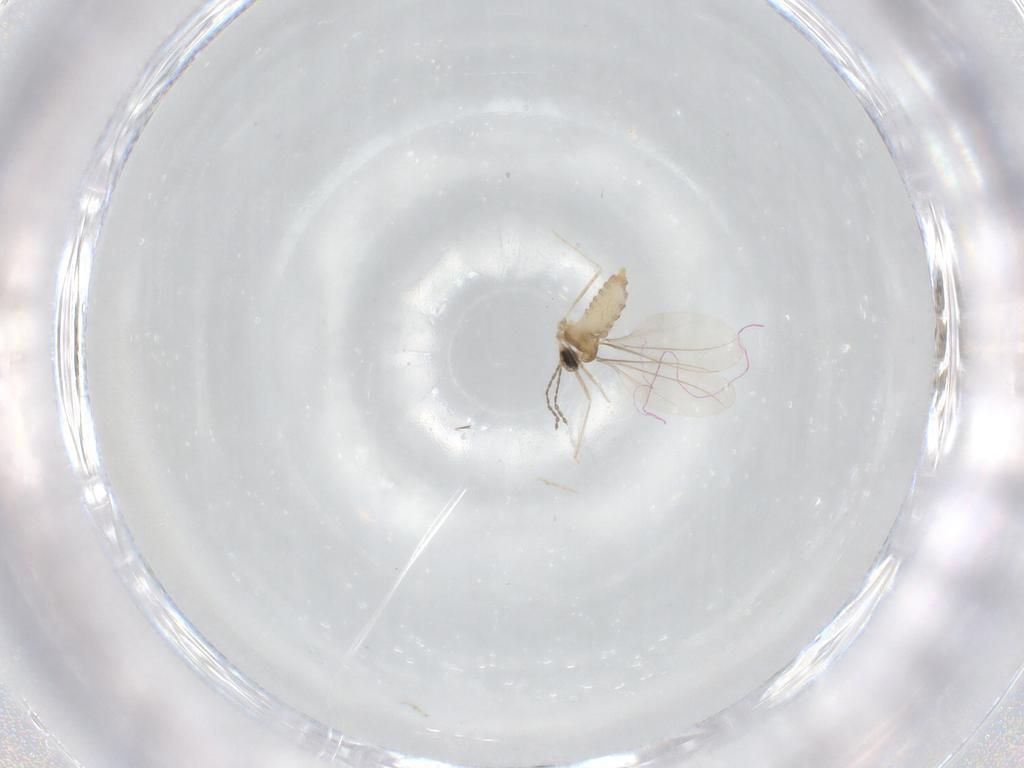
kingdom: Animalia
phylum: Arthropoda
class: Insecta
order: Diptera
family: Cecidomyiidae
